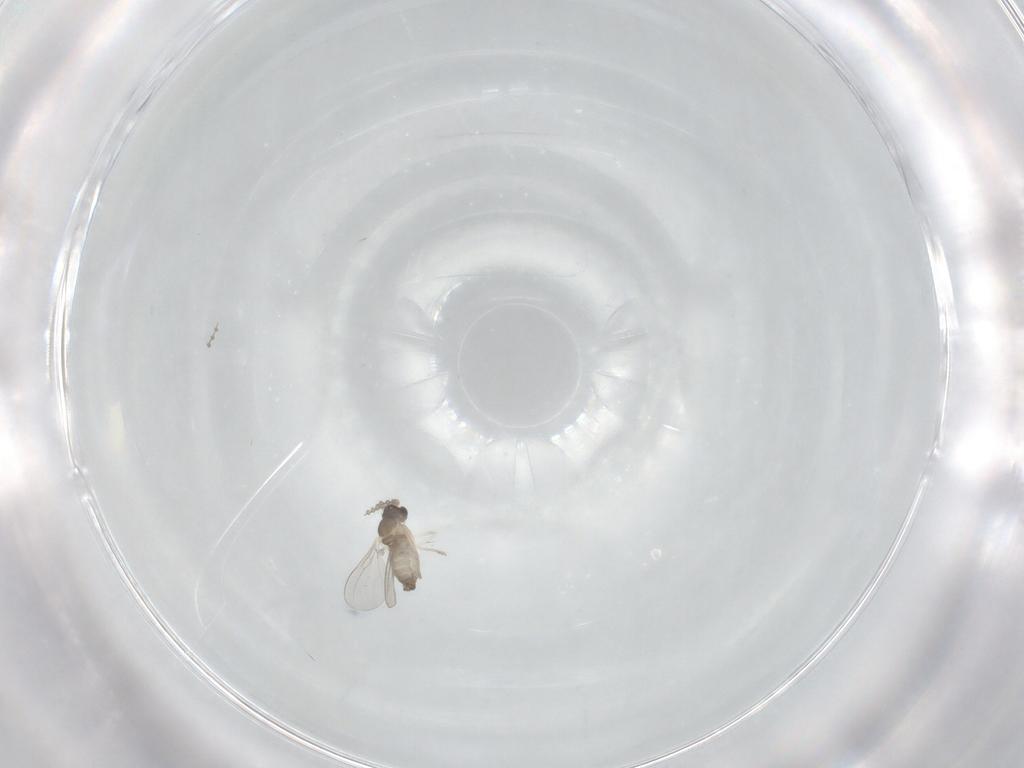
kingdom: Animalia
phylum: Arthropoda
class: Insecta
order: Diptera
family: Cecidomyiidae
